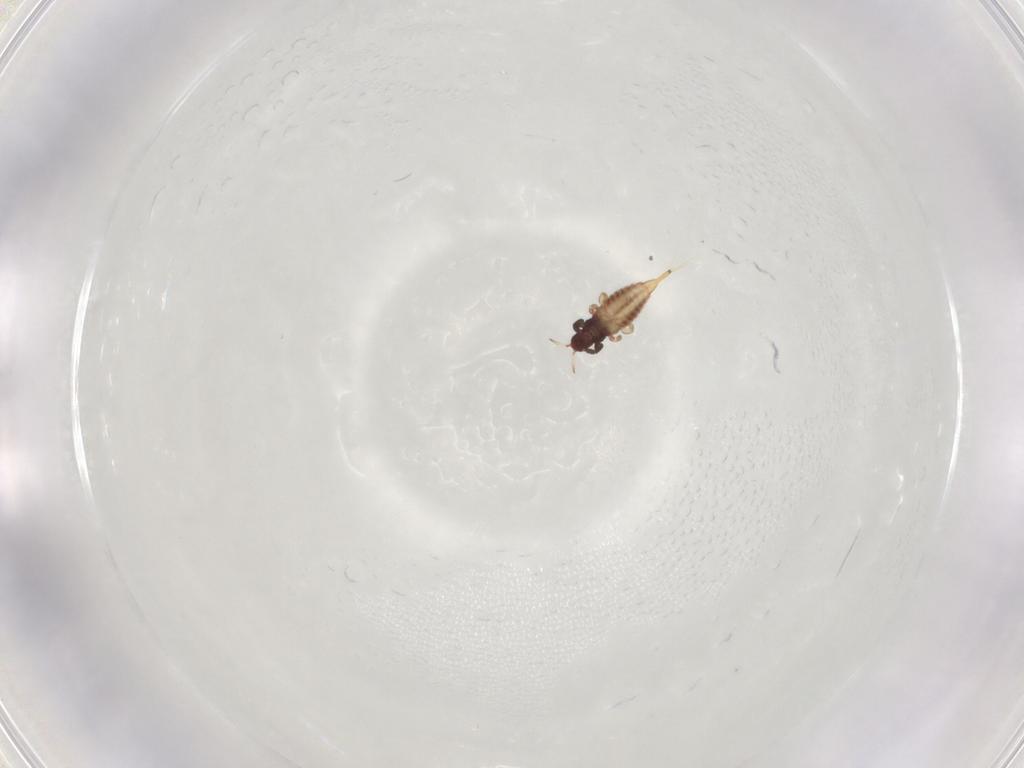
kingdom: Animalia
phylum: Arthropoda
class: Insecta
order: Thysanoptera
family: Phlaeothripidae
